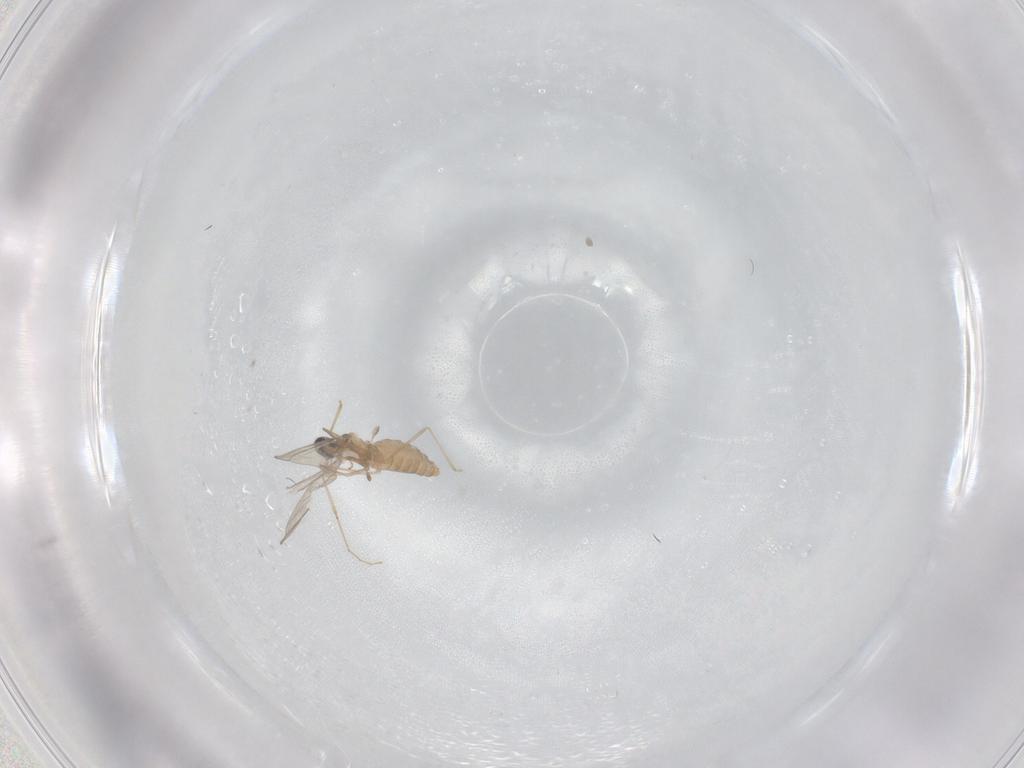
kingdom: Animalia
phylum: Arthropoda
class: Insecta
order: Diptera
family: Cecidomyiidae
